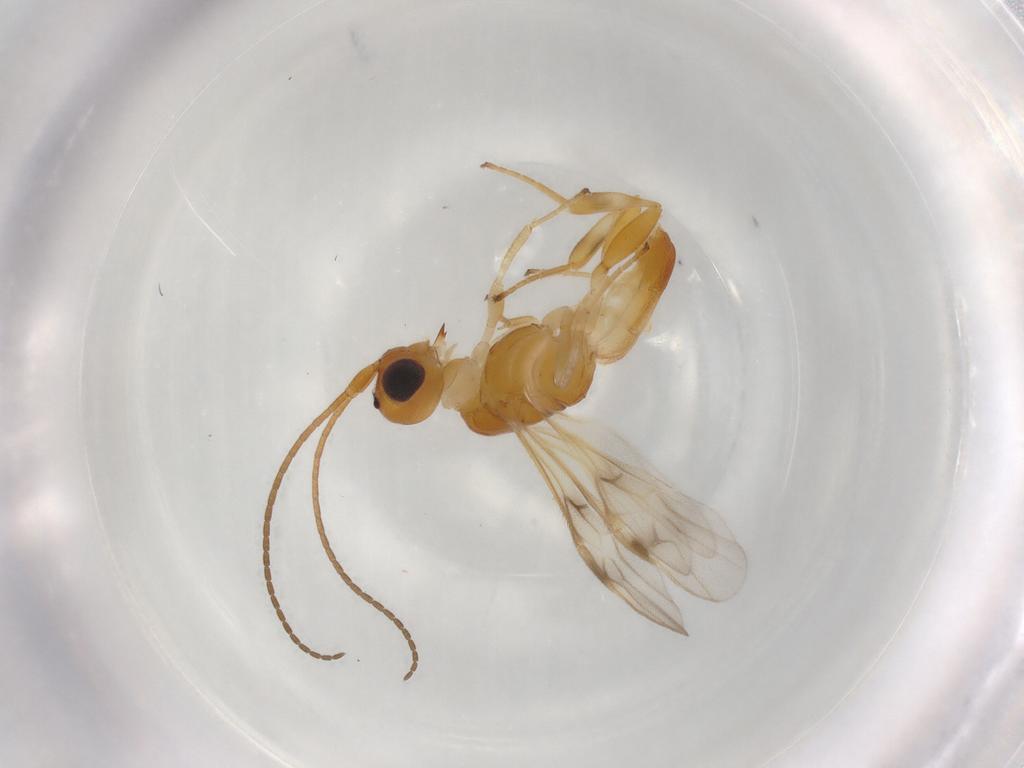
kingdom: Animalia
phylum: Arthropoda
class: Insecta
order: Hymenoptera
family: Braconidae
